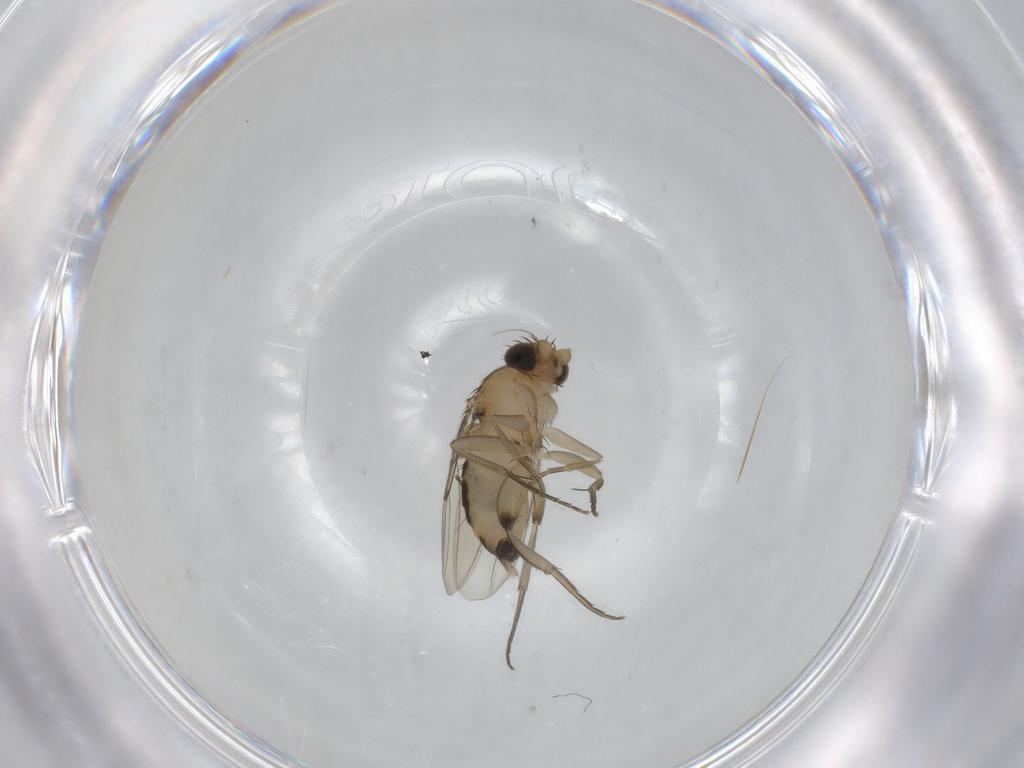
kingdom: Animalia
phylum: Arthropoda
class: Insecta
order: Diptera
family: Phoridae
